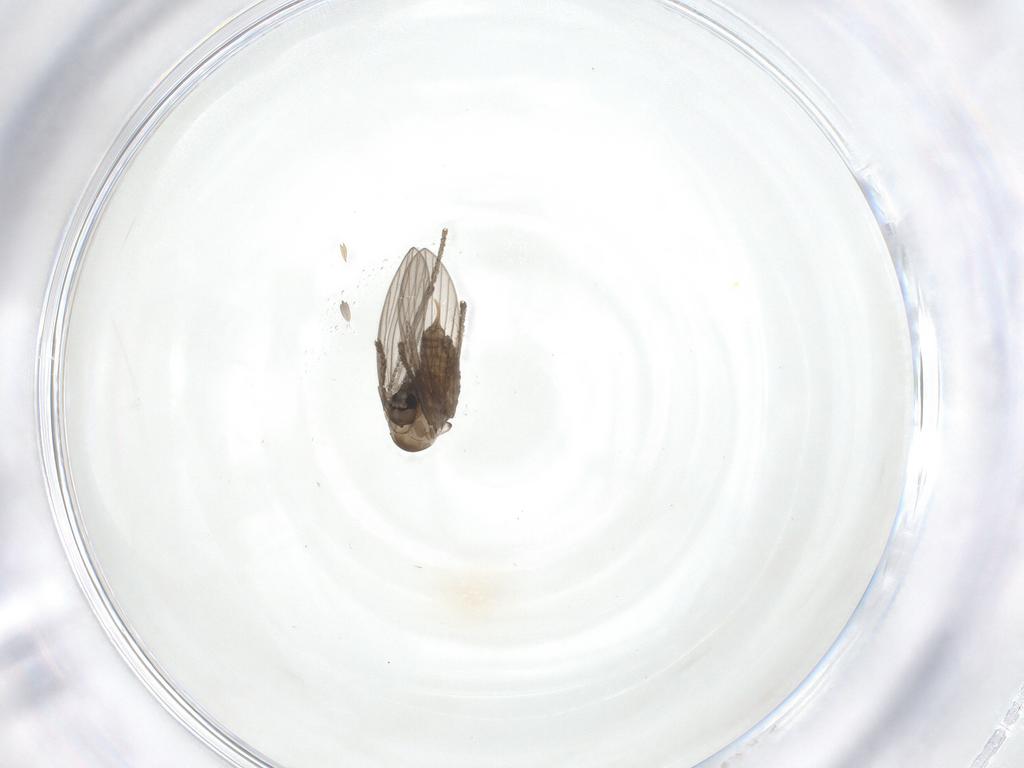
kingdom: Animalia
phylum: Arthropoda
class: Insecta
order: Diptera
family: Psychodidae
